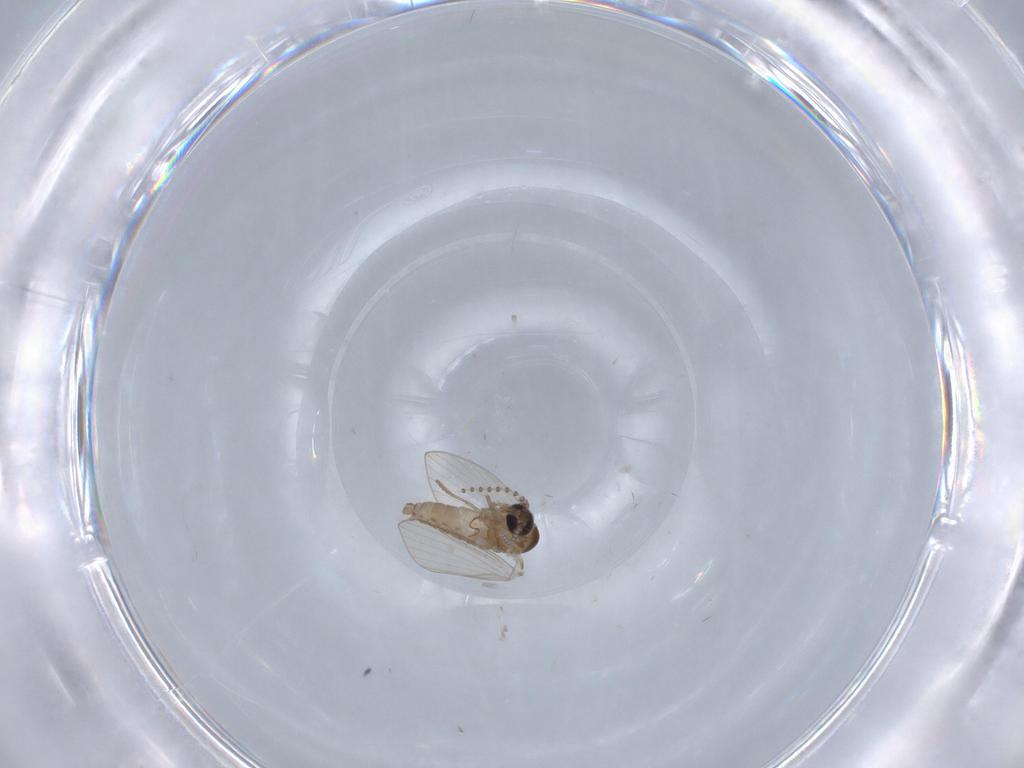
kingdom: Animalia
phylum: Arthropoda
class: Insecta
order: Diptera
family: Psychodidae
